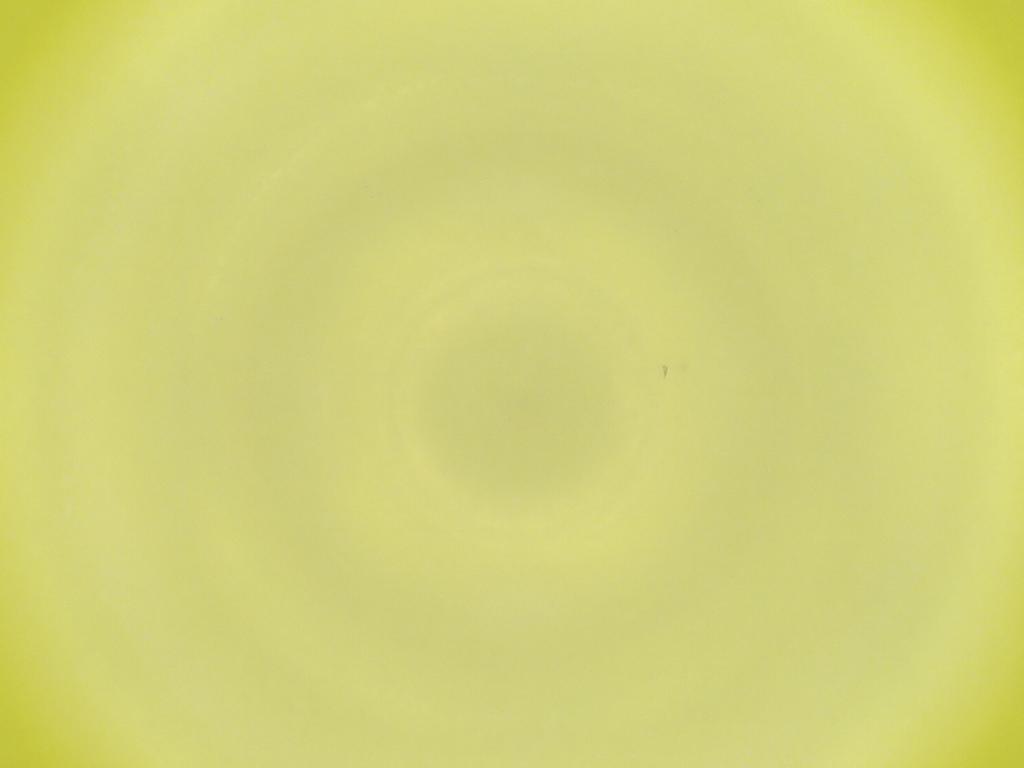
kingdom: Animalia
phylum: Arthropoda
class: Insecta
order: Diptera
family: Cecidomyiidae
